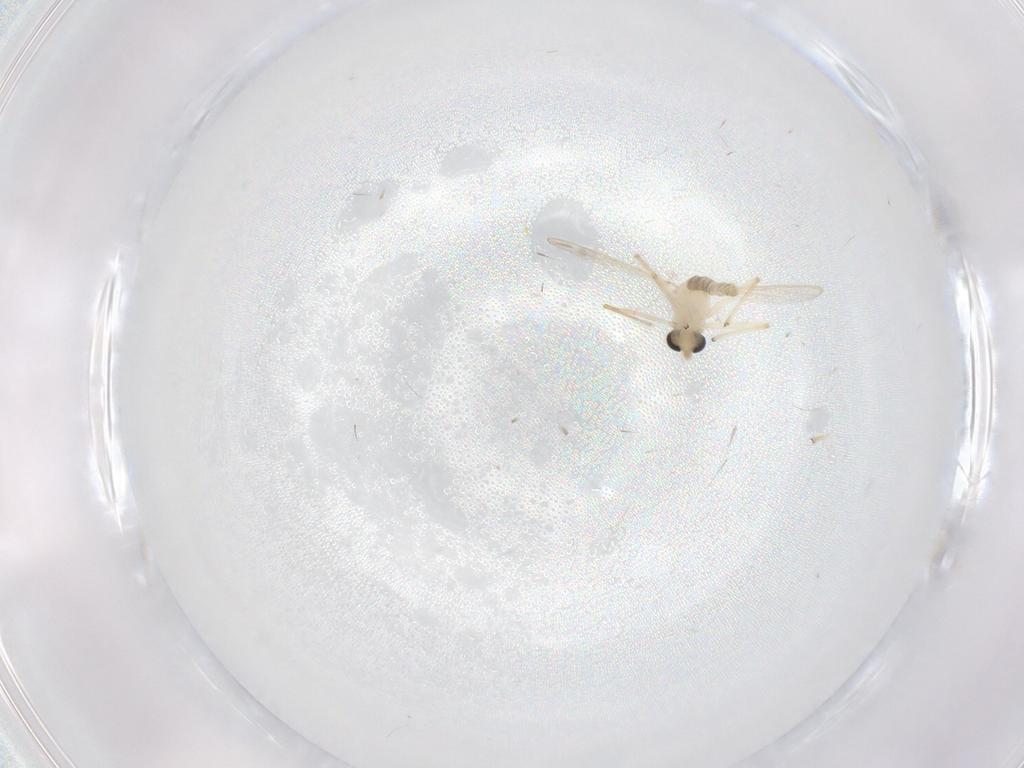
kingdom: Animalia
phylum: Arthropoda
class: Insecta
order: Diptera
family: Chironomidae
